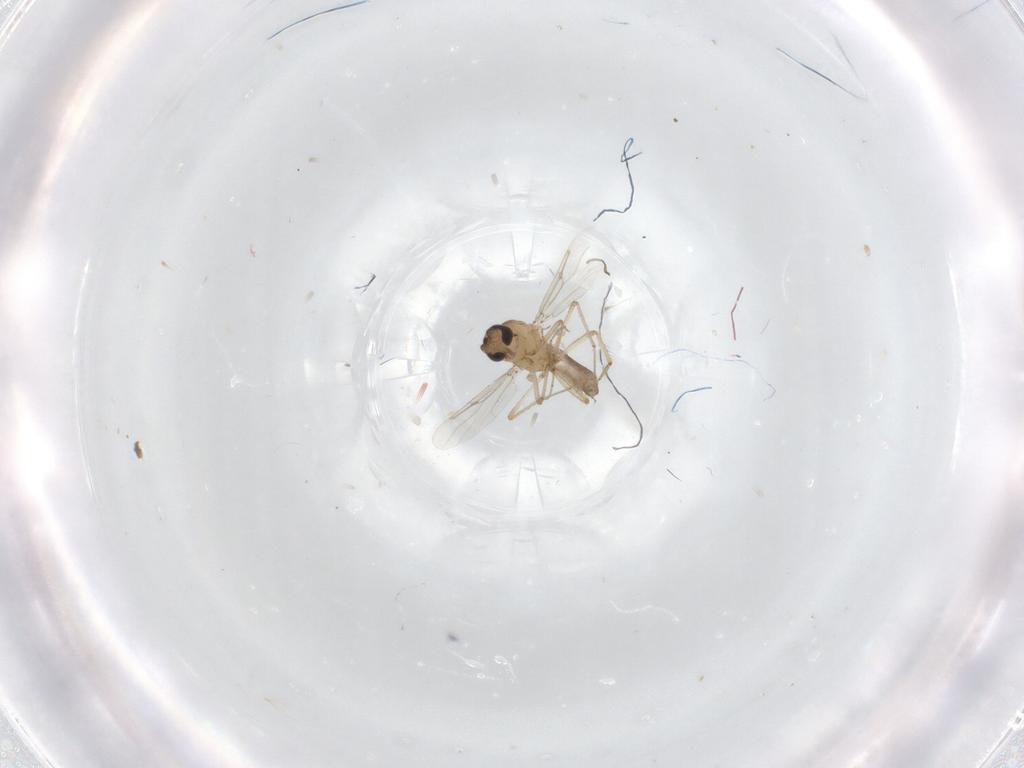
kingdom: Animalia
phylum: Arthropoda
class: Insecta
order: Diptera
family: Ceratopogonidae
